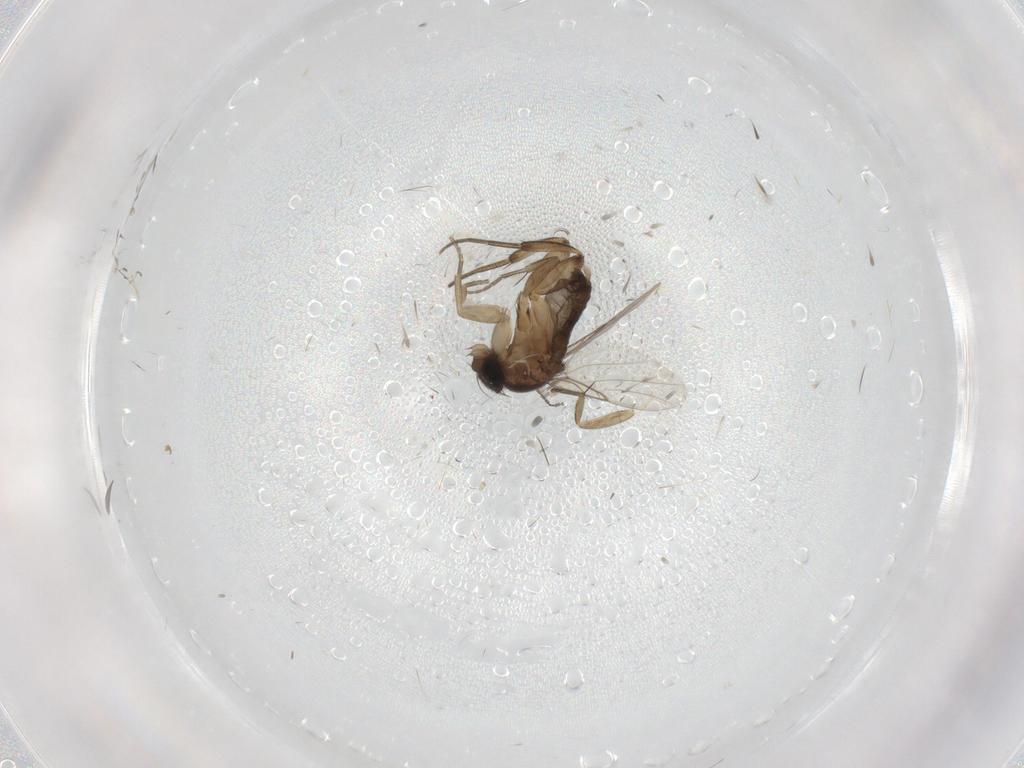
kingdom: Animalia
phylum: Arthropoda
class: Insecta
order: Diptera
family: Phoridae
